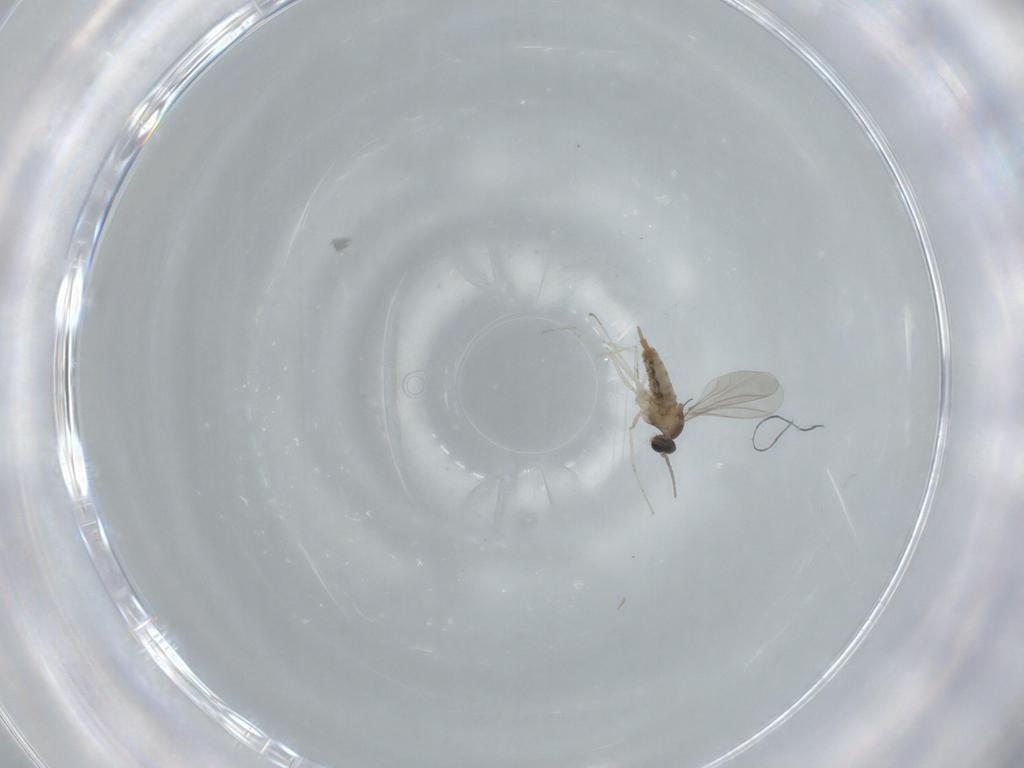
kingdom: Animalia
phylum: Arthropoda
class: Insecta
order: Diptera
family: Cecidomyiidae
